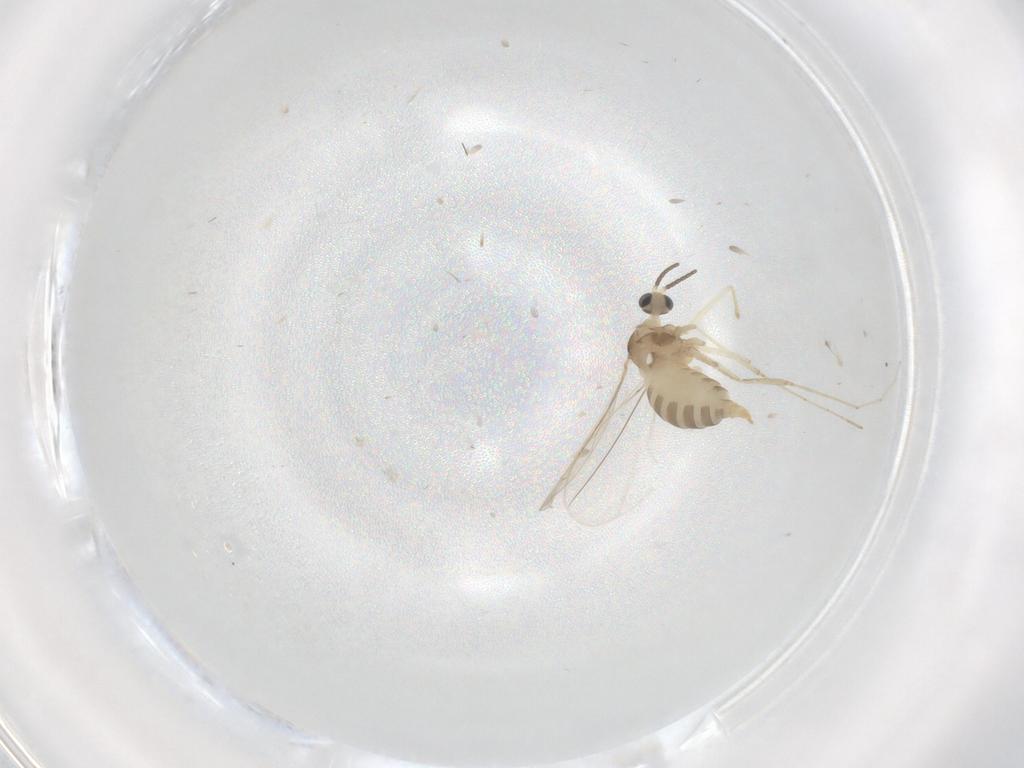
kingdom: Animalia
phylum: Arthropoda
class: Insecta
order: Diptera
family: Cecidomyiidae
